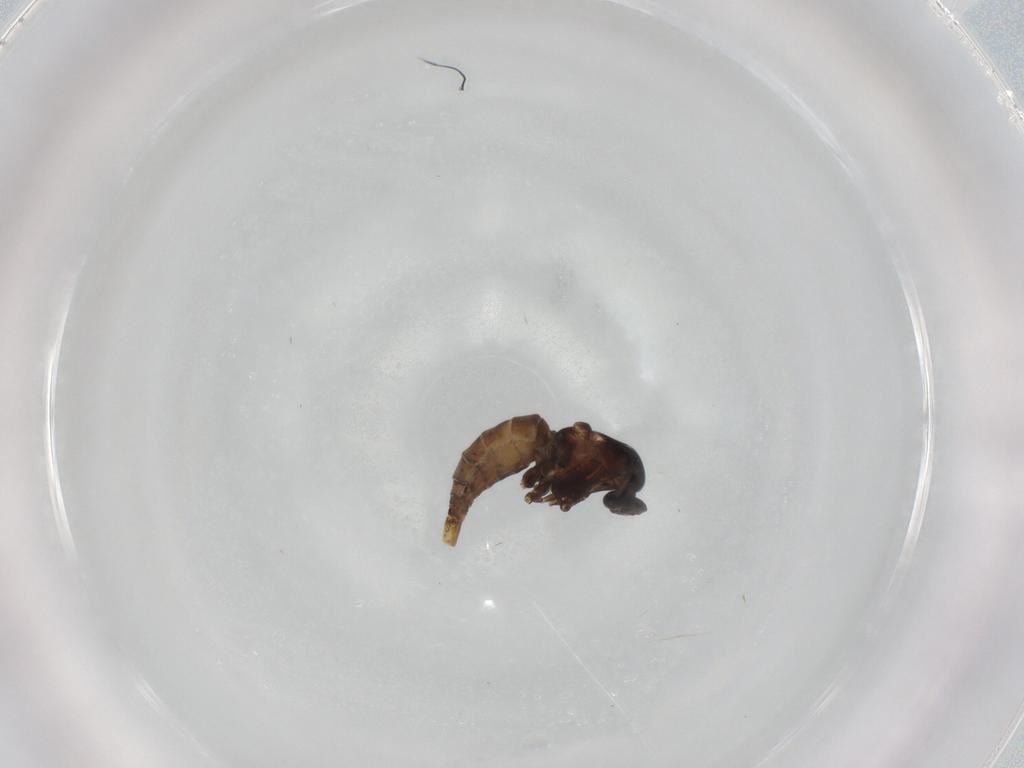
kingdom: Animalia
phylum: Arthropoda
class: Insecta
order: Diptera
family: Cecidomyiidae
